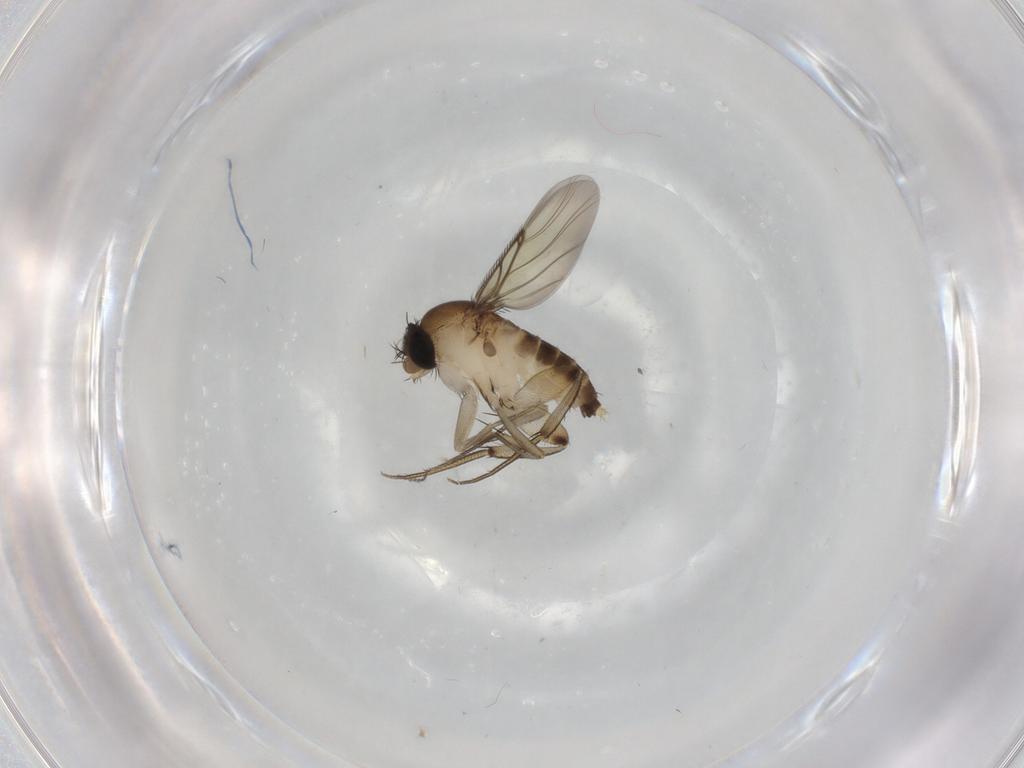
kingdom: Animalia
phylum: Arthropoda
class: Insecta
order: Diptera
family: Phoridae
